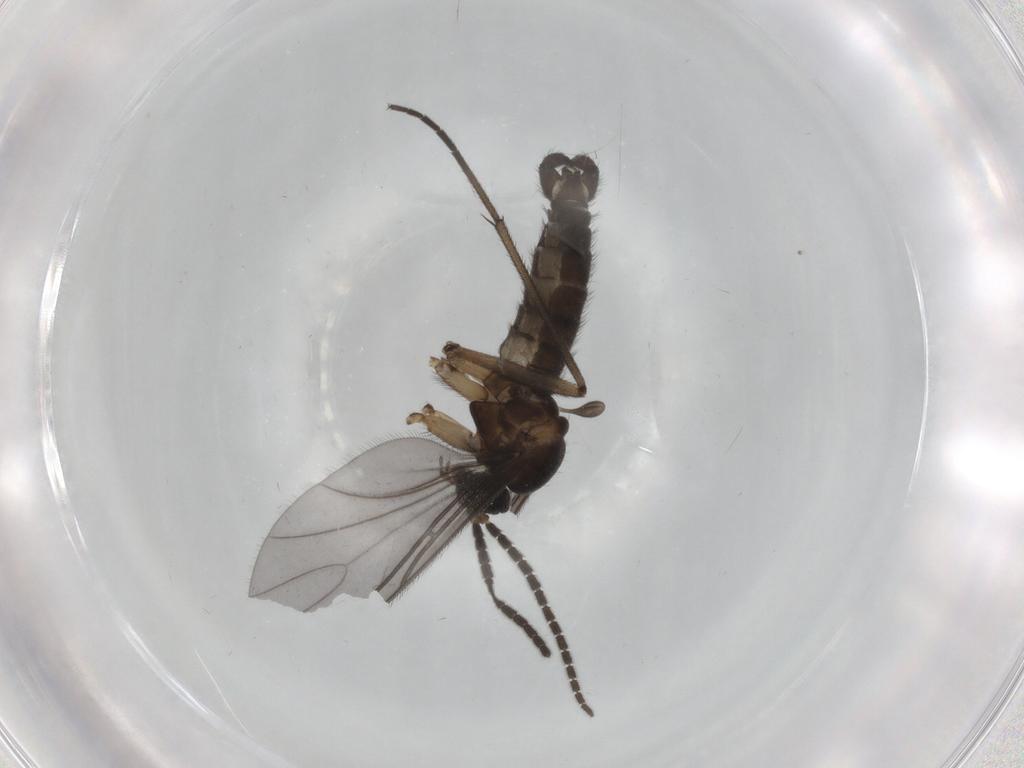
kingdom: Animalia
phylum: Arthropoda
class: Insecta
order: Diptera
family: Sciaridae
